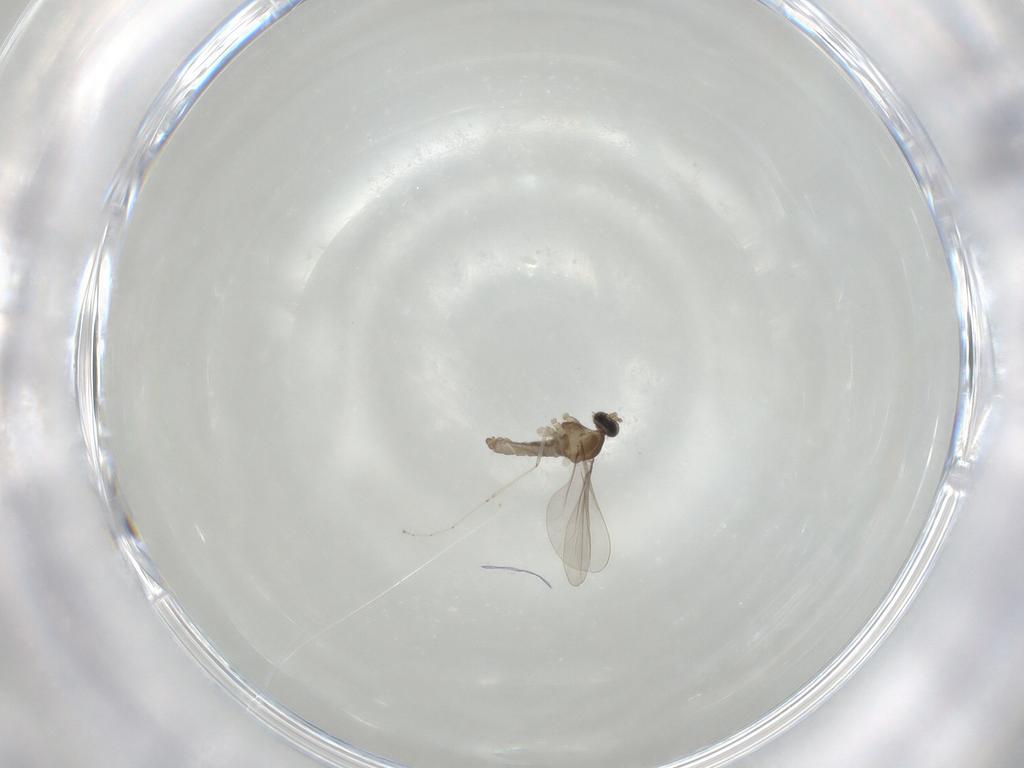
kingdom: Animalia
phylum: Arthropoda
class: Insecta
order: Diptera
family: Cecidomyiidae
